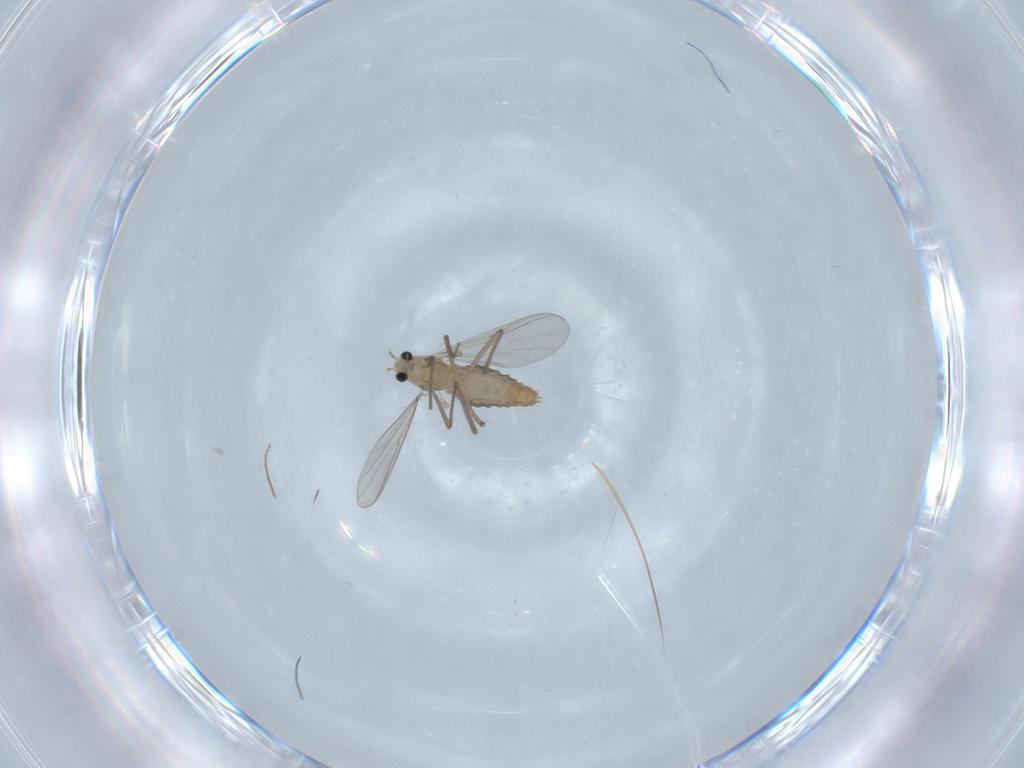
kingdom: Animalia
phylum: Arthropoda
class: Insecta
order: Diptera
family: Chironomidae
